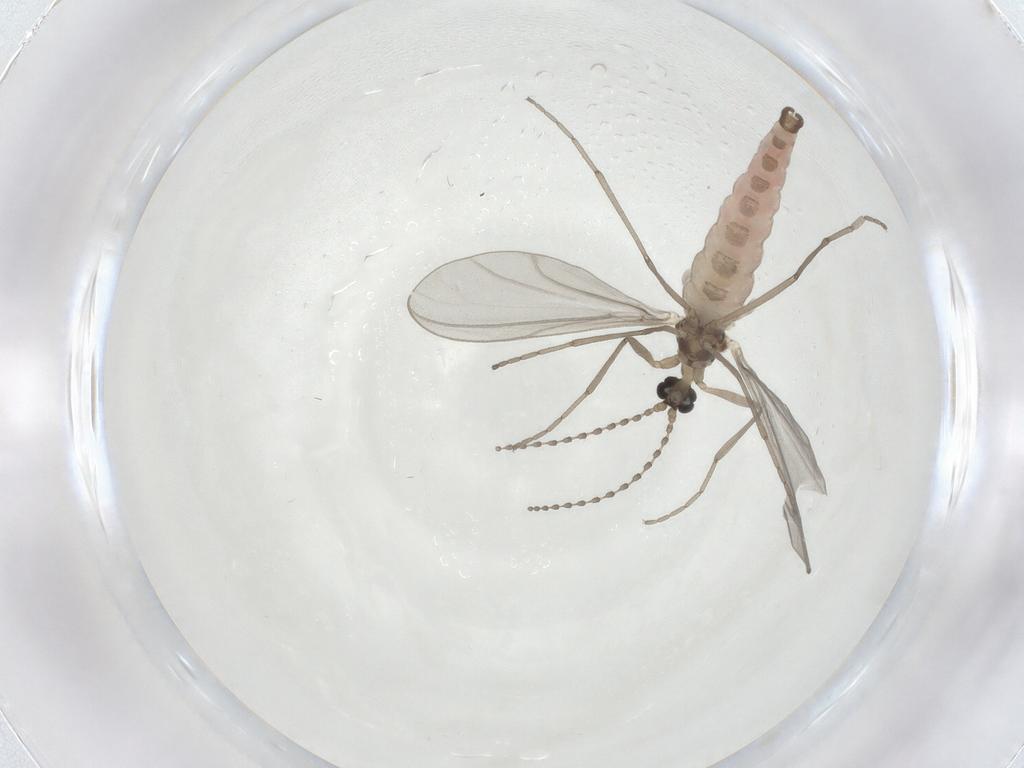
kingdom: Animalia
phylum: Arthropoda
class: Insecta
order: Diptera
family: Cecidomyiidae
